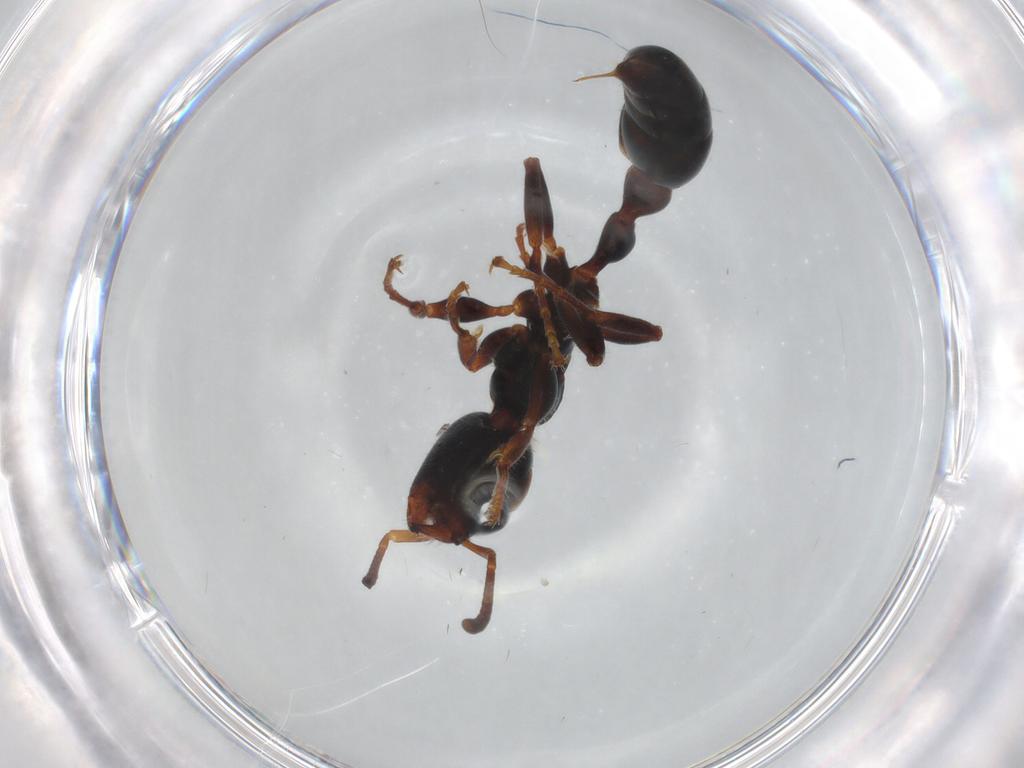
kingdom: Animalia
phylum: Arthropoda
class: Insecta
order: Hymenoptera
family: Formicidae
